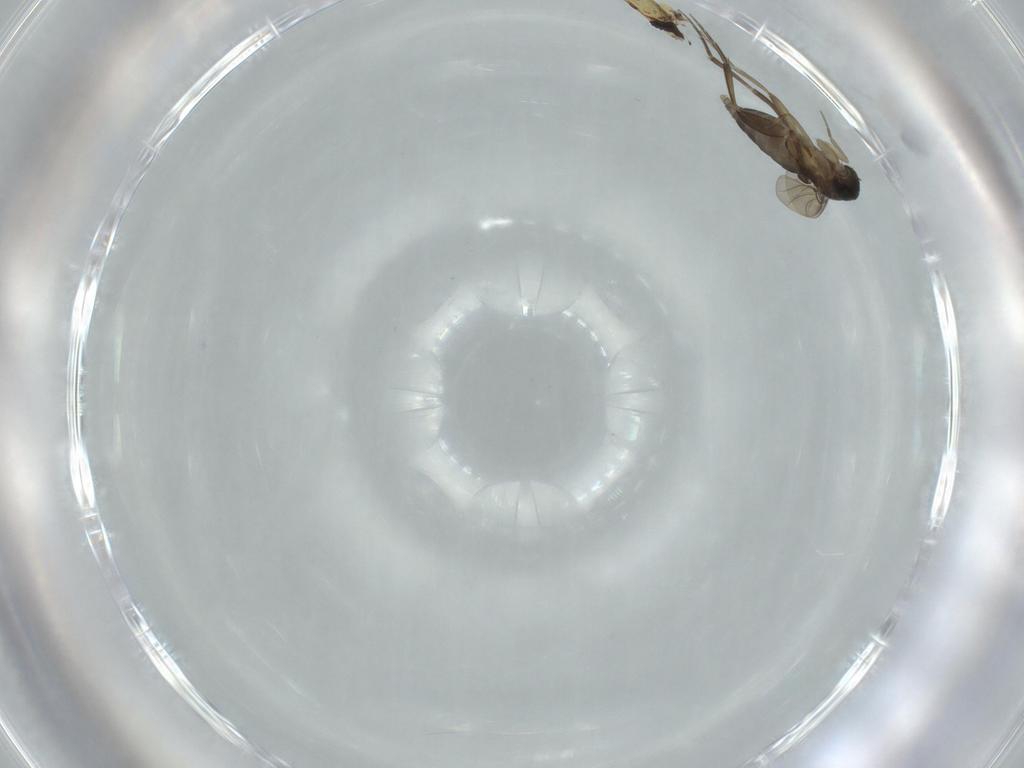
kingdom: Animalia
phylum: Arthropoda
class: Insecta
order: Diptera
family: Phoridae
